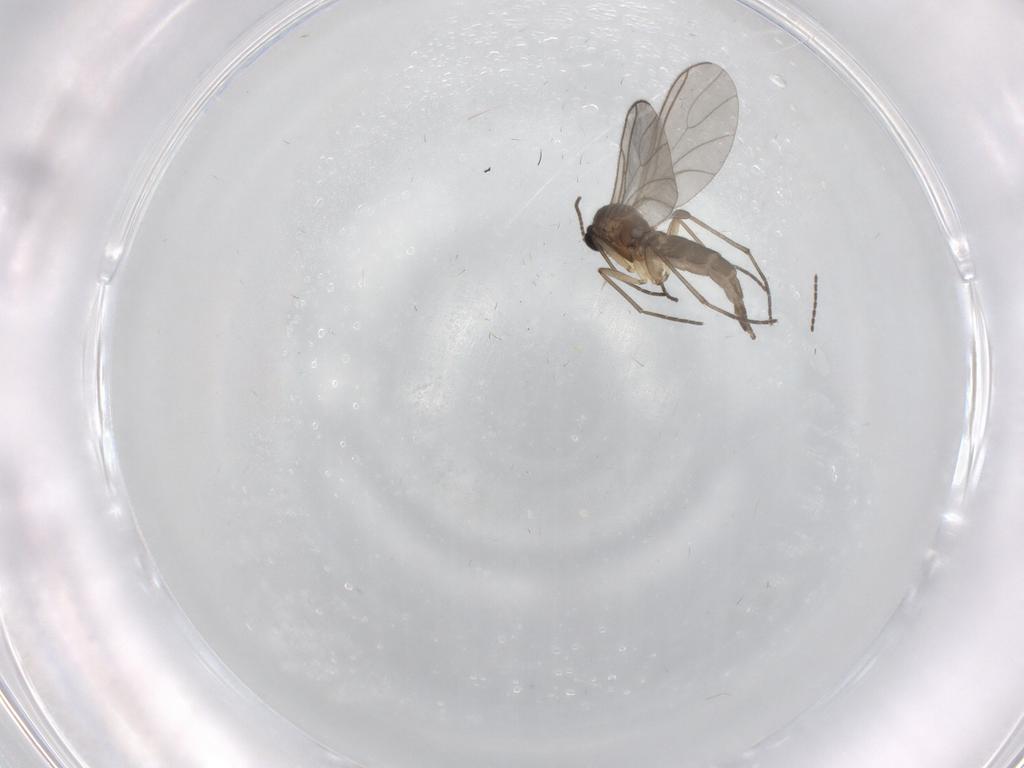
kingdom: Animalia
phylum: Arthropoda
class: Insecta
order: Diptera
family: Sciaridae
